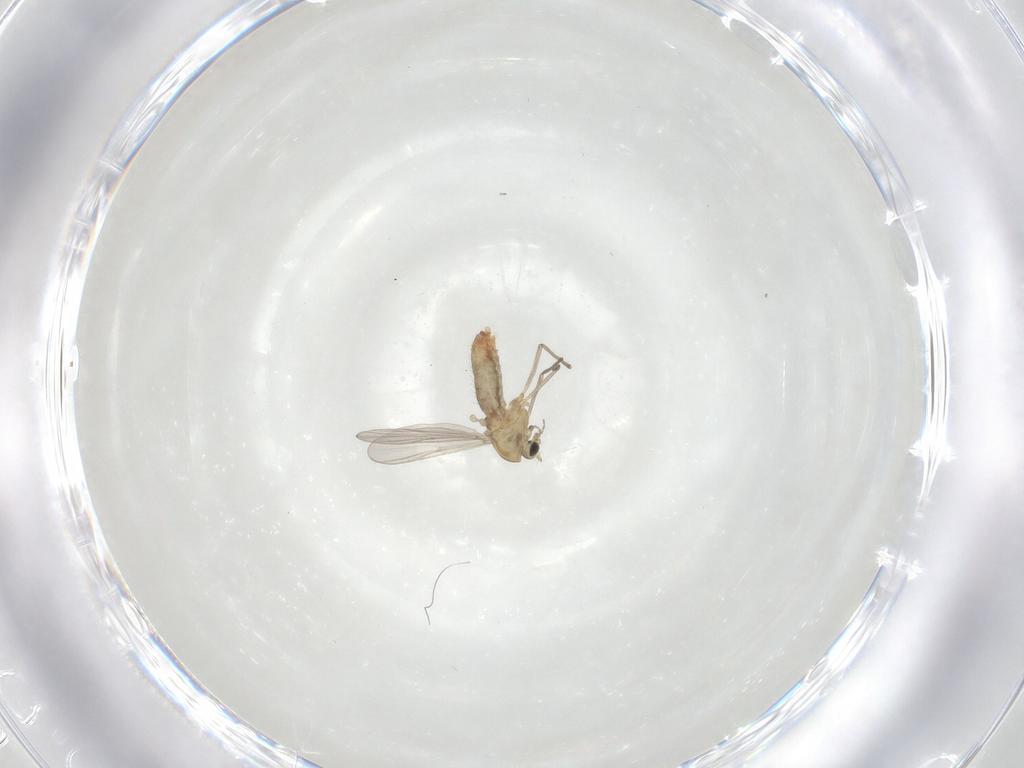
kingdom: Animalia
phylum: Arthropoda
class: Insecta
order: Diptera
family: Chironomidae
